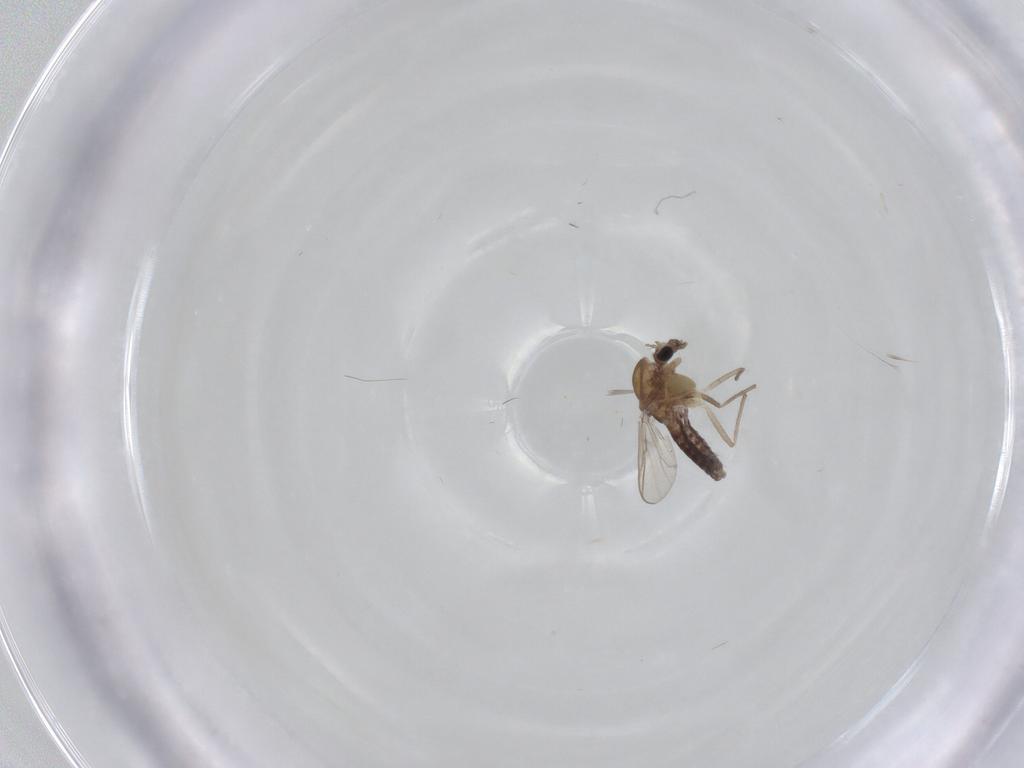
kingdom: Animalia
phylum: Arthropoda
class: Insecta
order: Diptera
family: Chironomidae
